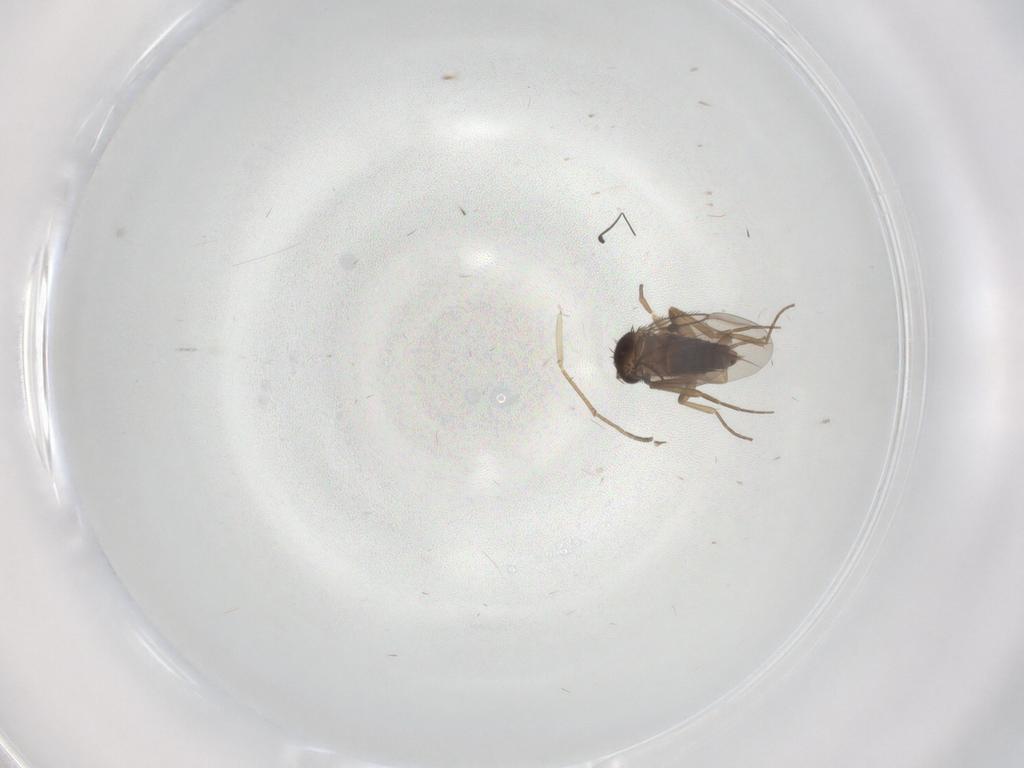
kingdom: Animalia
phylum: Arthropoda
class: Insecta
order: Diptera
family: Phoridae
